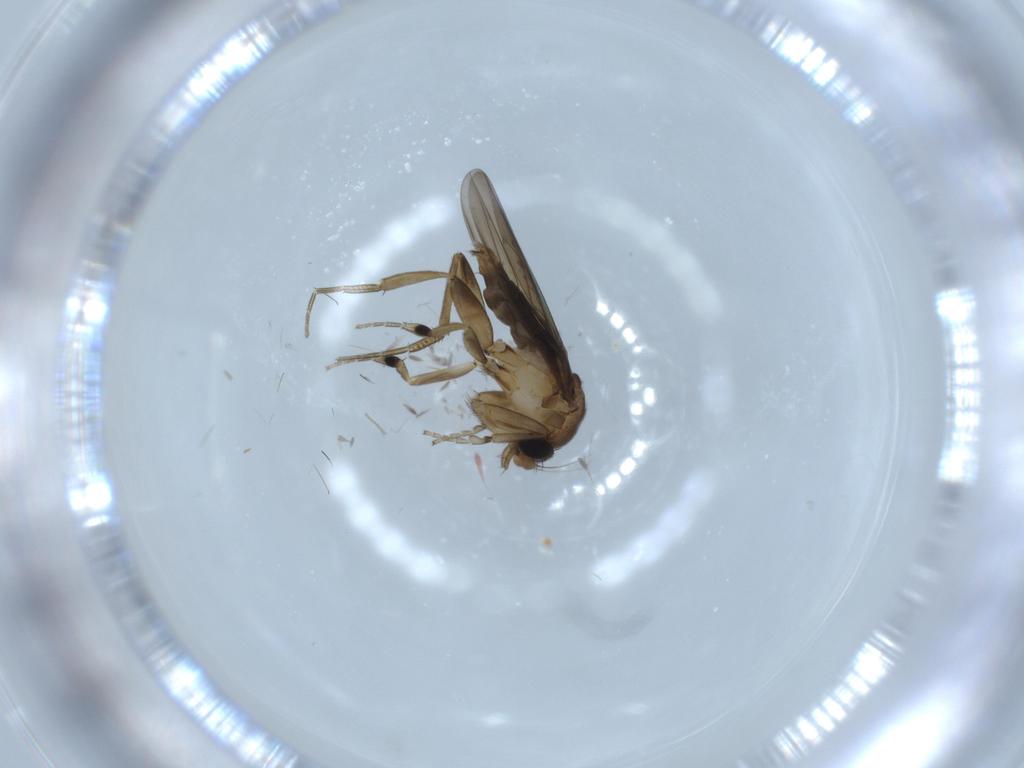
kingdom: Animalia
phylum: Arthropoda
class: Insecta
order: Diptera
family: Phoridae
